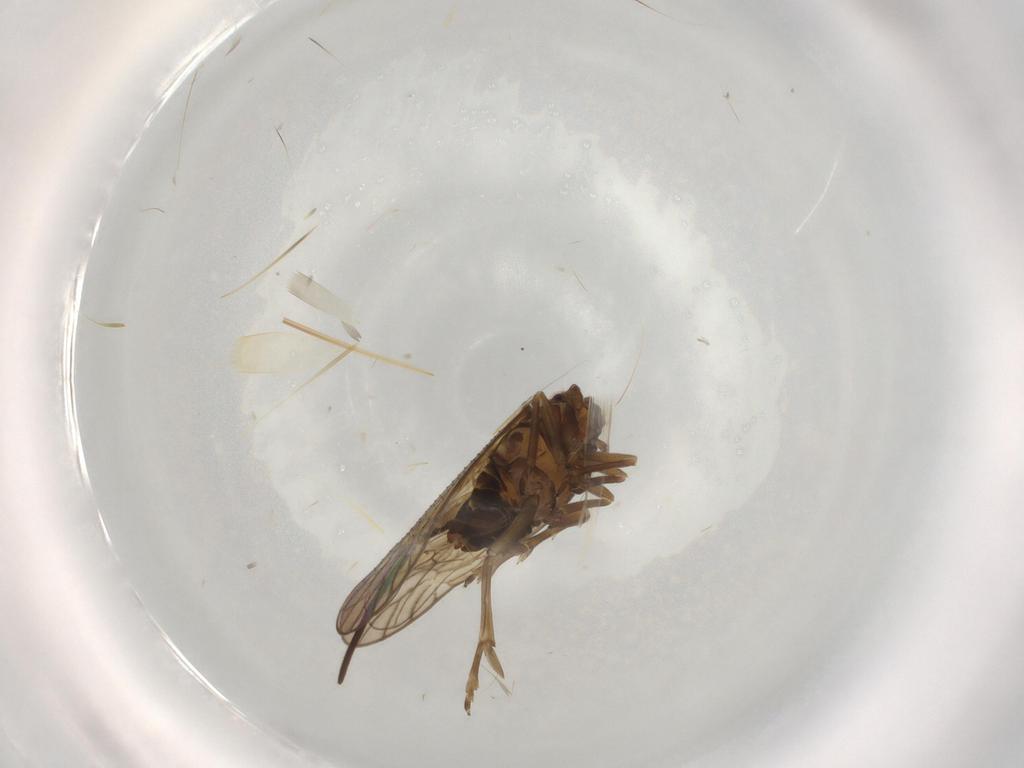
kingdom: Animalia
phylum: Arthropoda
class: Insecta
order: Hemiptera
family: Delphacidae
